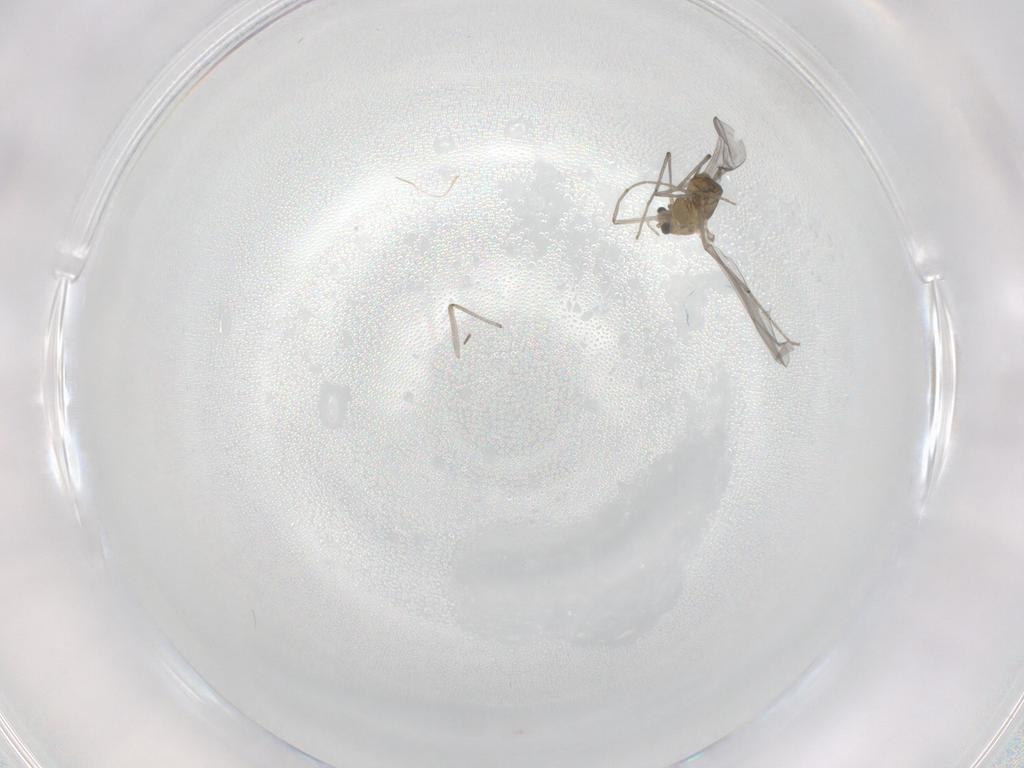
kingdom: Animalia
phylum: Arthropoda
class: Insecta
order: Diptera
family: Chironomidae
